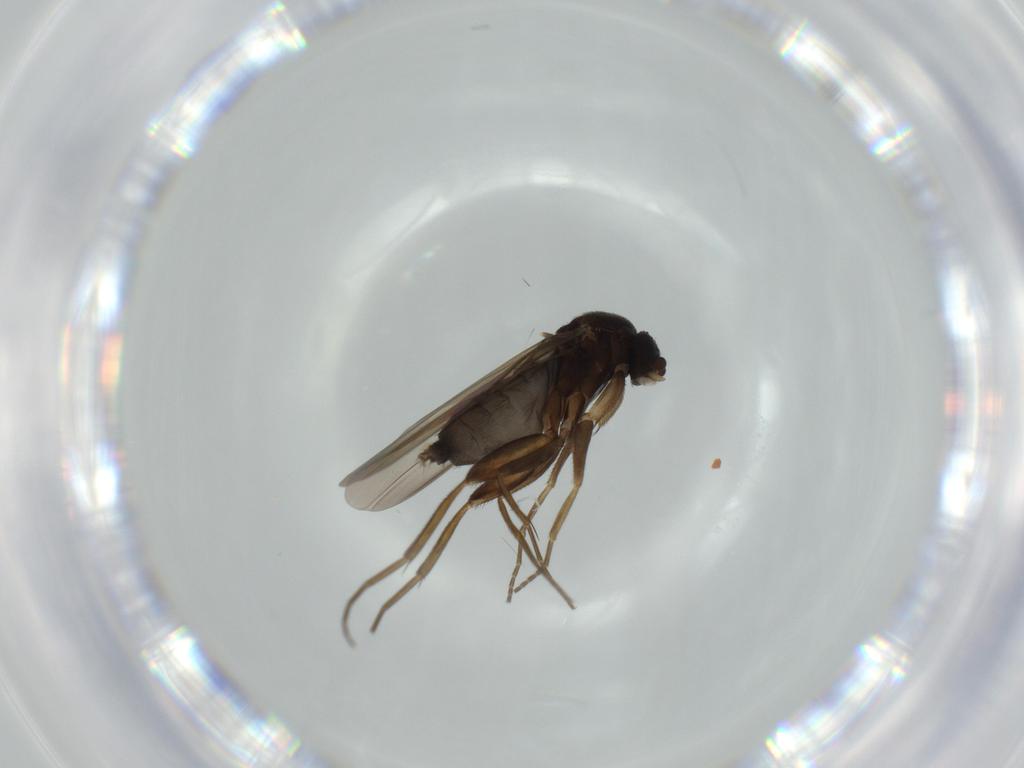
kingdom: Animalia
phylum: Arthropoda
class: Insecta
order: Diptera
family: Phoridae
